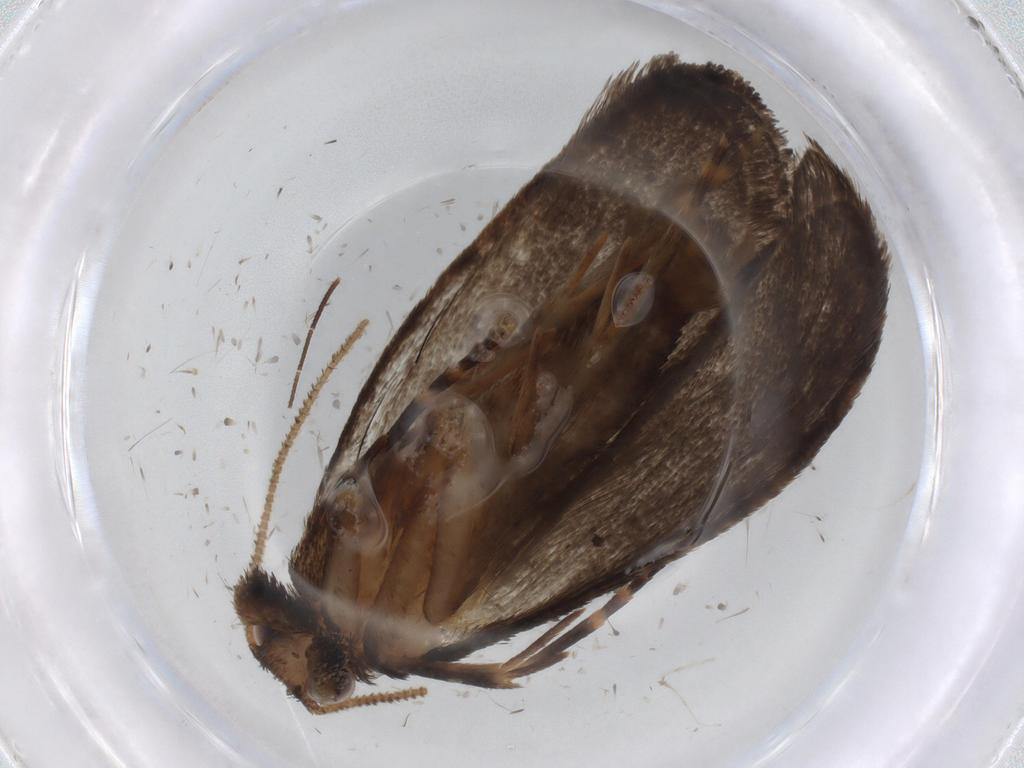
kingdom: Animalia
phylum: Arthropoda
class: Insecta
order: Lepidoptera
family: Tineidae
